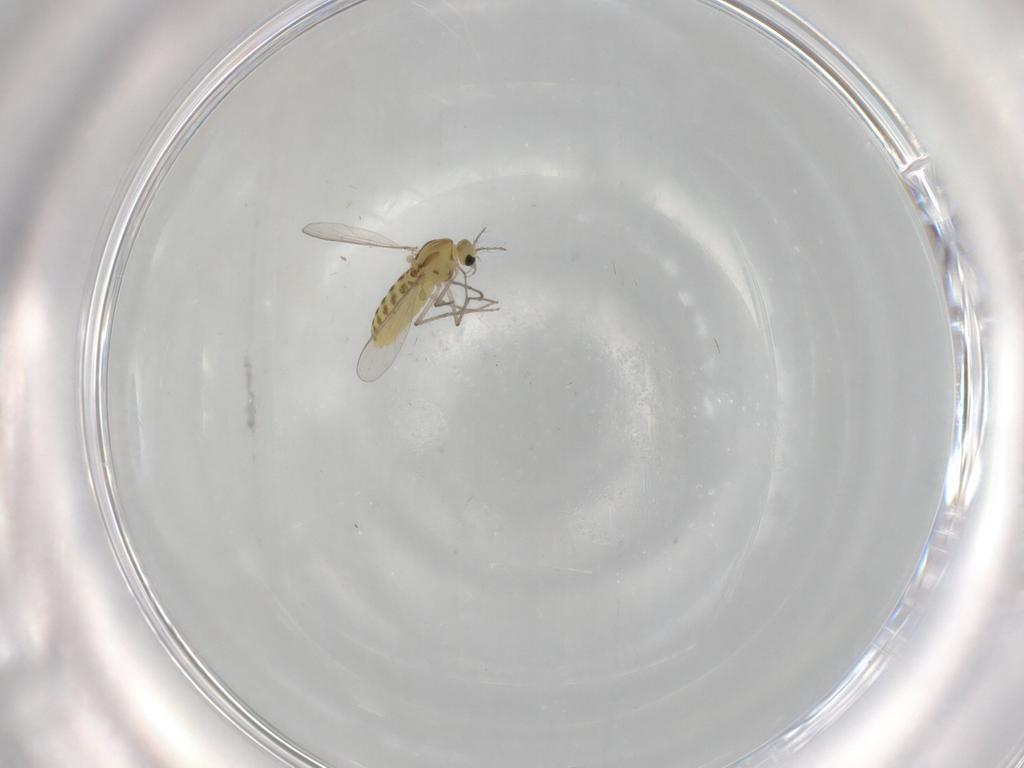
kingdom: Animalia
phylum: Arthropoda
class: Insecta
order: Diptera
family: Chironomidae
